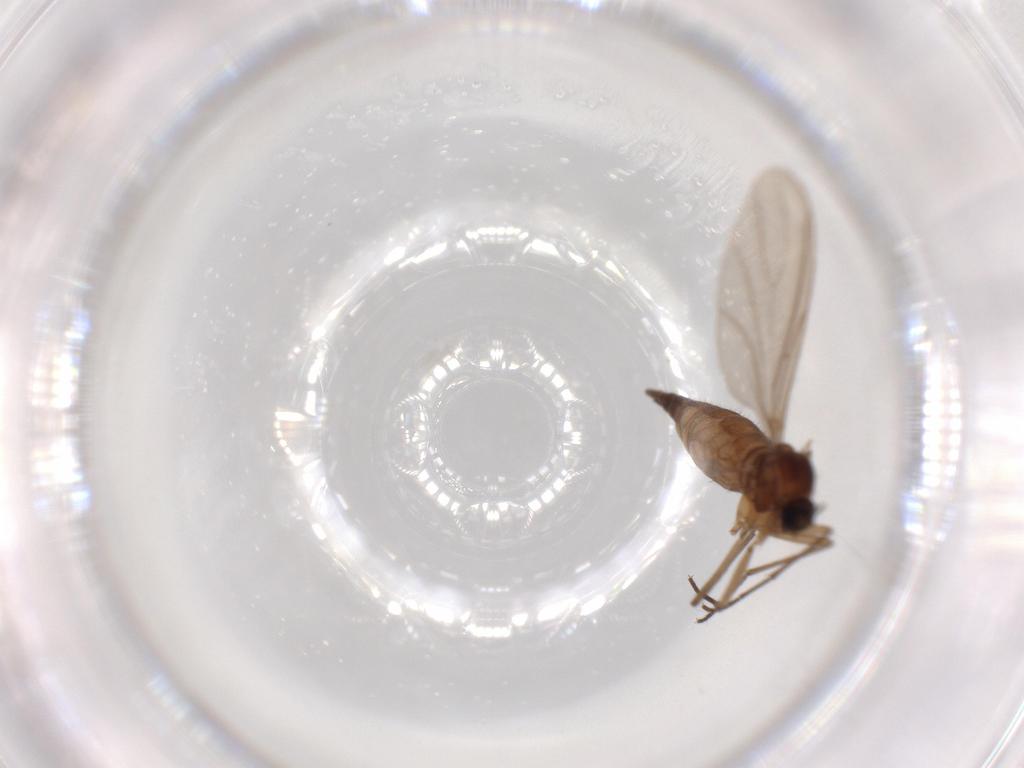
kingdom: Animalia
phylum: Arthropoda
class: Insecta
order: Diptera
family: Sciaridae
